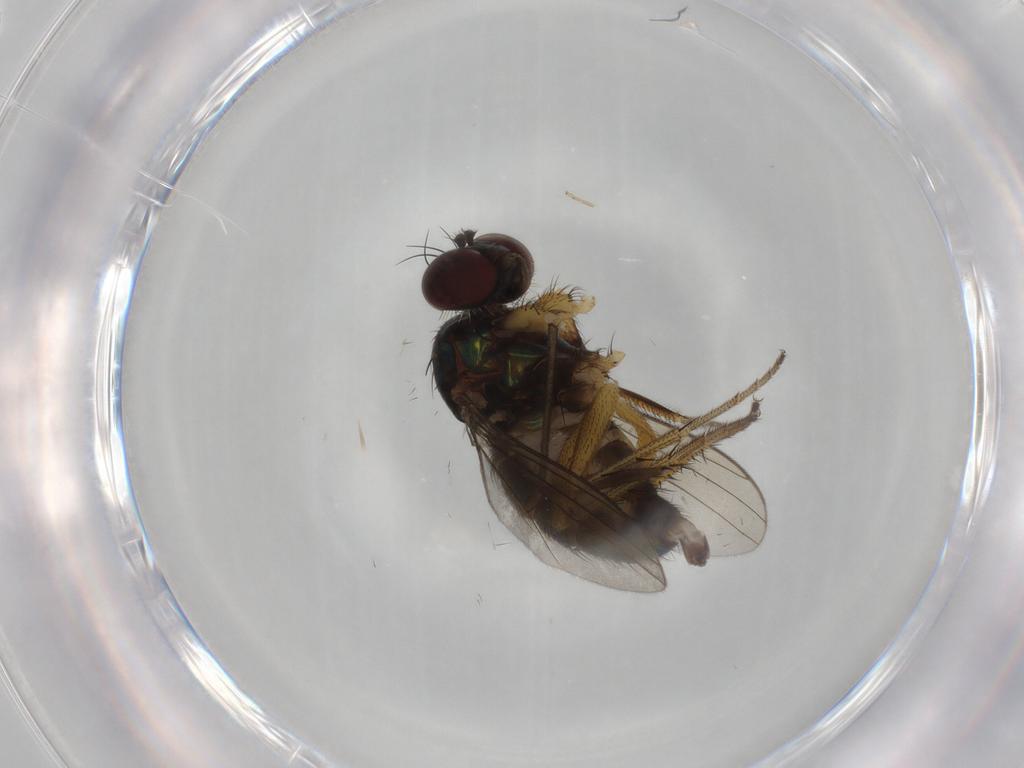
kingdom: Animalia
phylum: Arthropoda
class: Insecta
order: Diptera
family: Dolichopodidae
